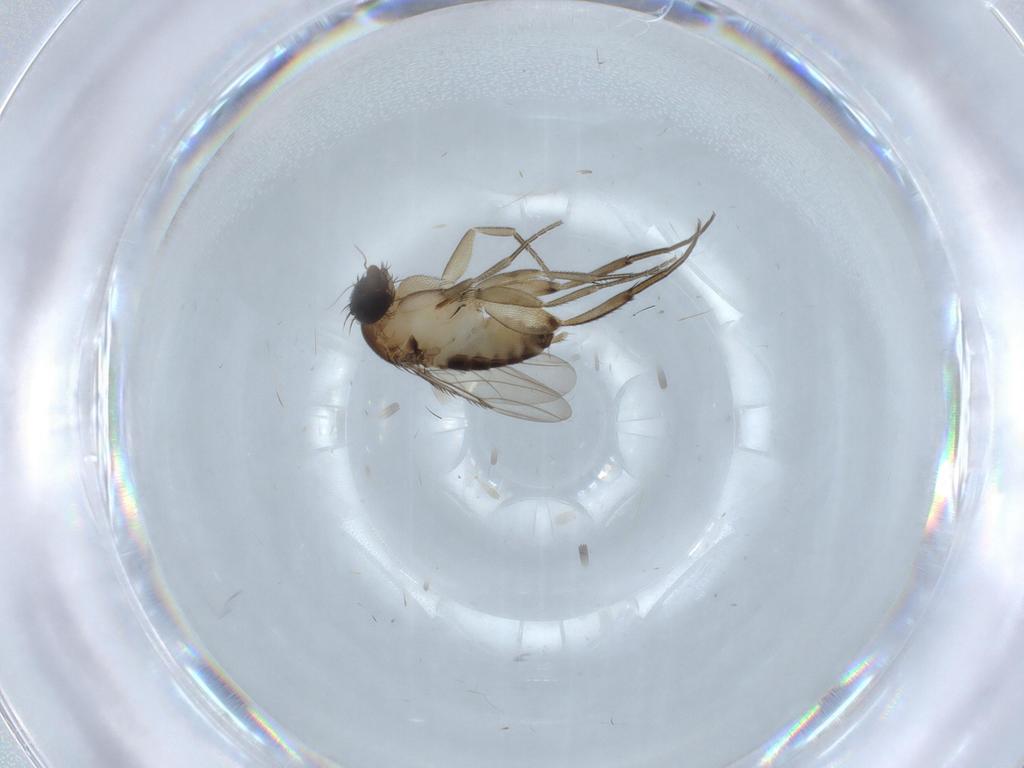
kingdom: Animalia
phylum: Arthropoda
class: Insecta
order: Diptera
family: Phoridae
